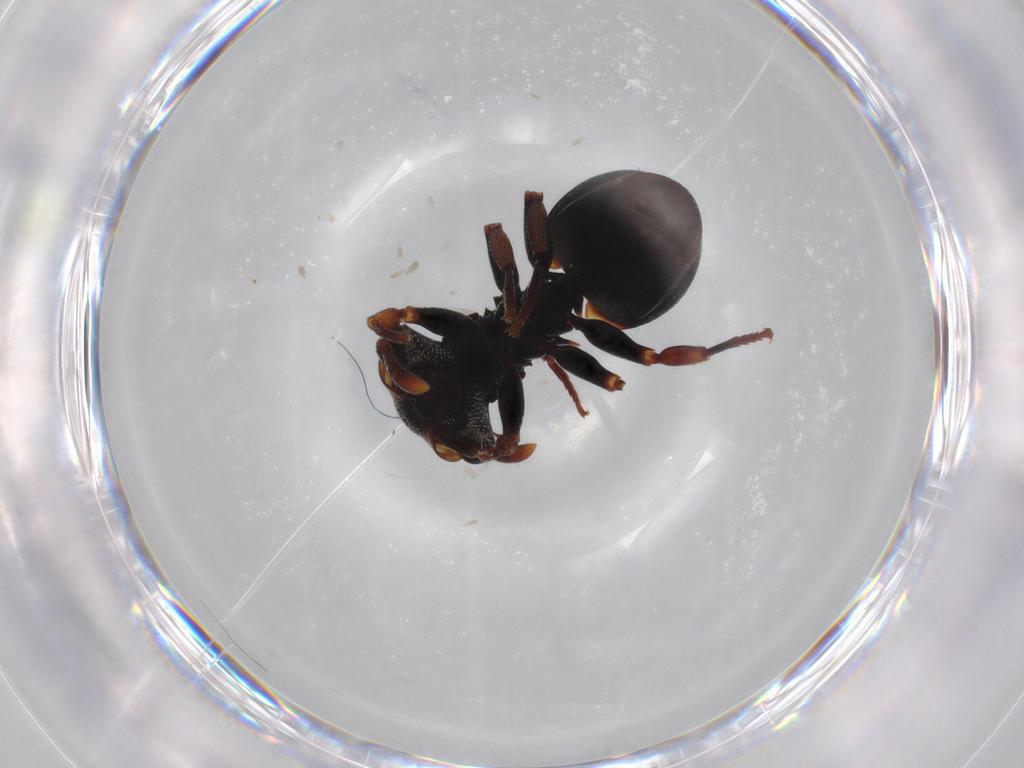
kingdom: Animalia
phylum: Arthropoda
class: Insecta
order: Hymenoptera
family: Formicidae
